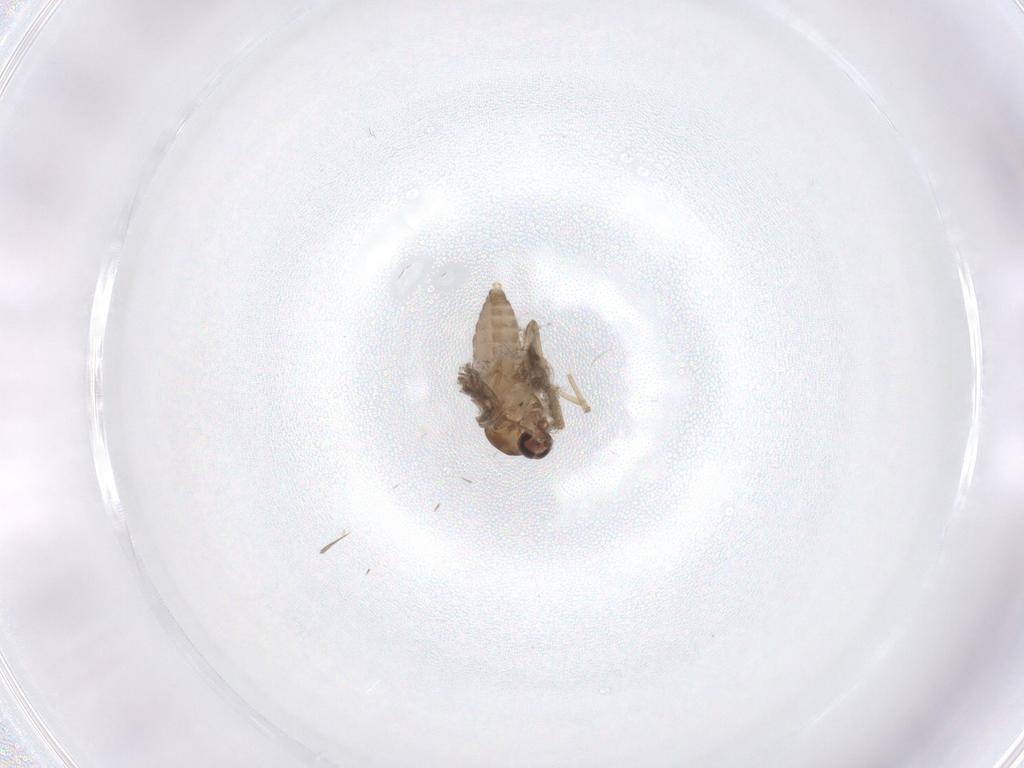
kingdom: Animalia
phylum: Arthropoda
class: Insecta
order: Diptera
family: Ceratopogonidae
